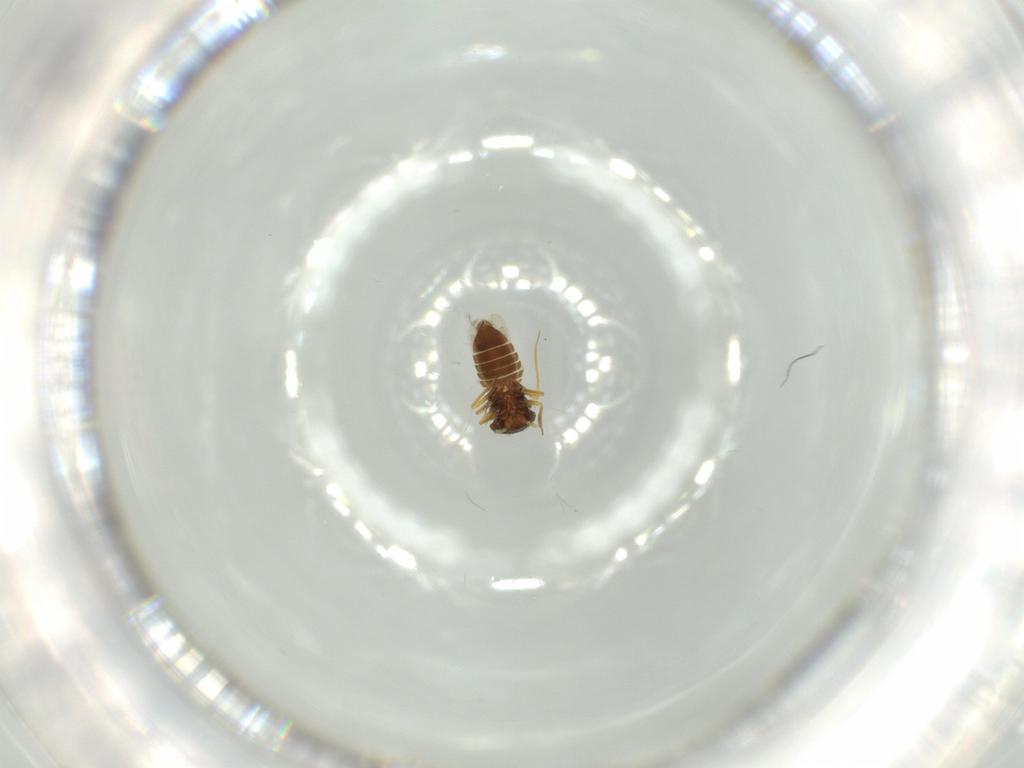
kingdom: Animalia
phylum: Arthropoda
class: Insecta
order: Hemiptera
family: Schizopteridae
